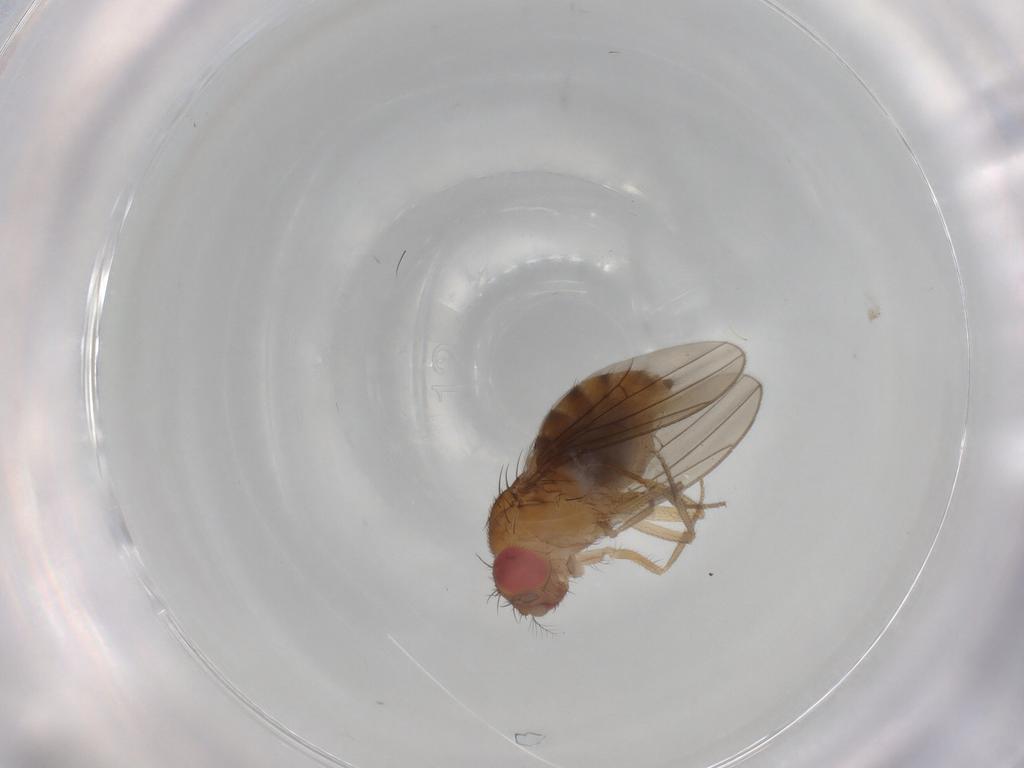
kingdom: Animalia
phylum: Arthropoda
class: Insecta
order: Diptera
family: Drosophilidae
